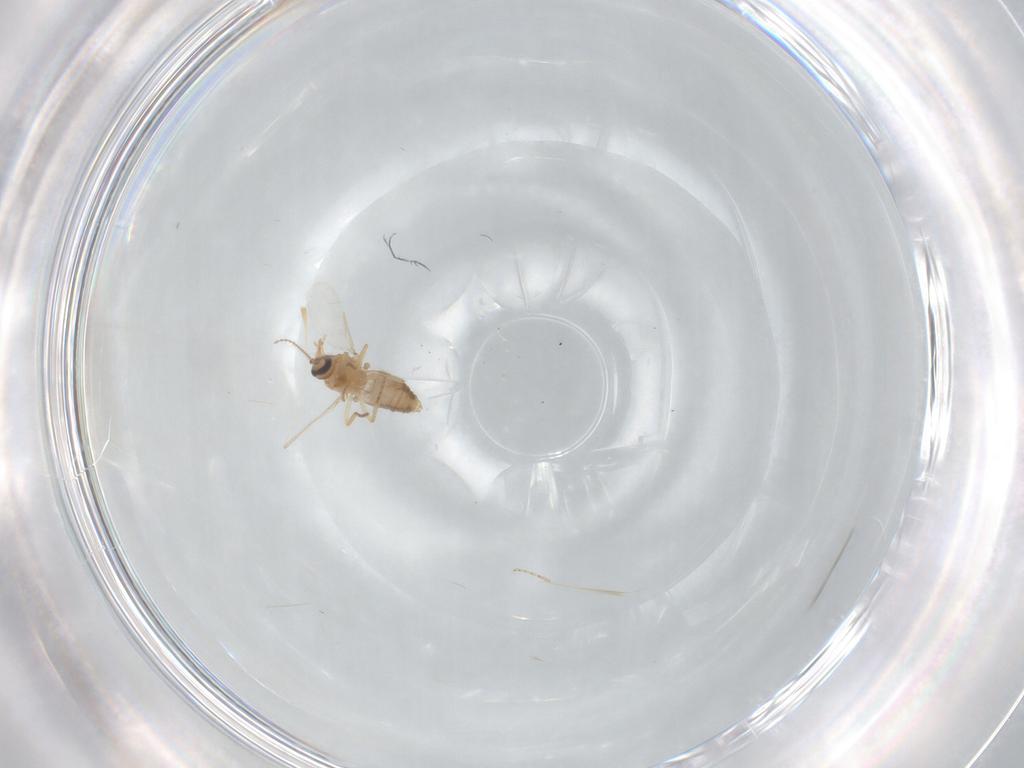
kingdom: Animalia
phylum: Arthropoda
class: Insecta
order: Diptera
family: Ceratopogonidae
